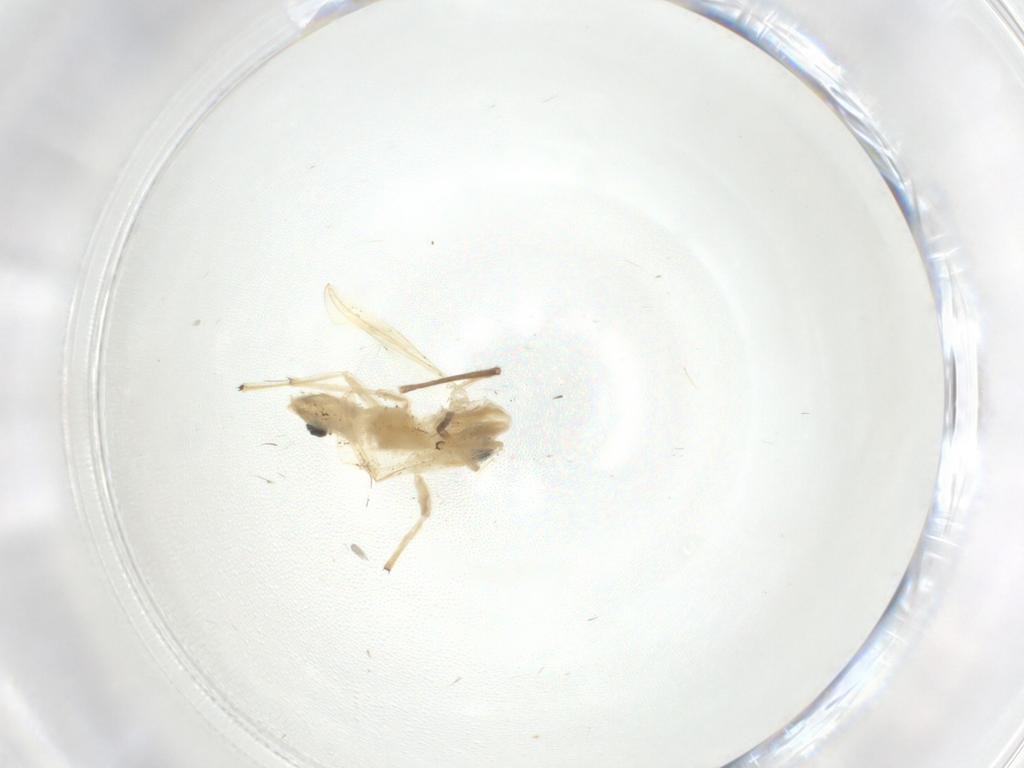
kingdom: Animalia
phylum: Arthropoda
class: Insecta
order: Diptera
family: Chironomidae
